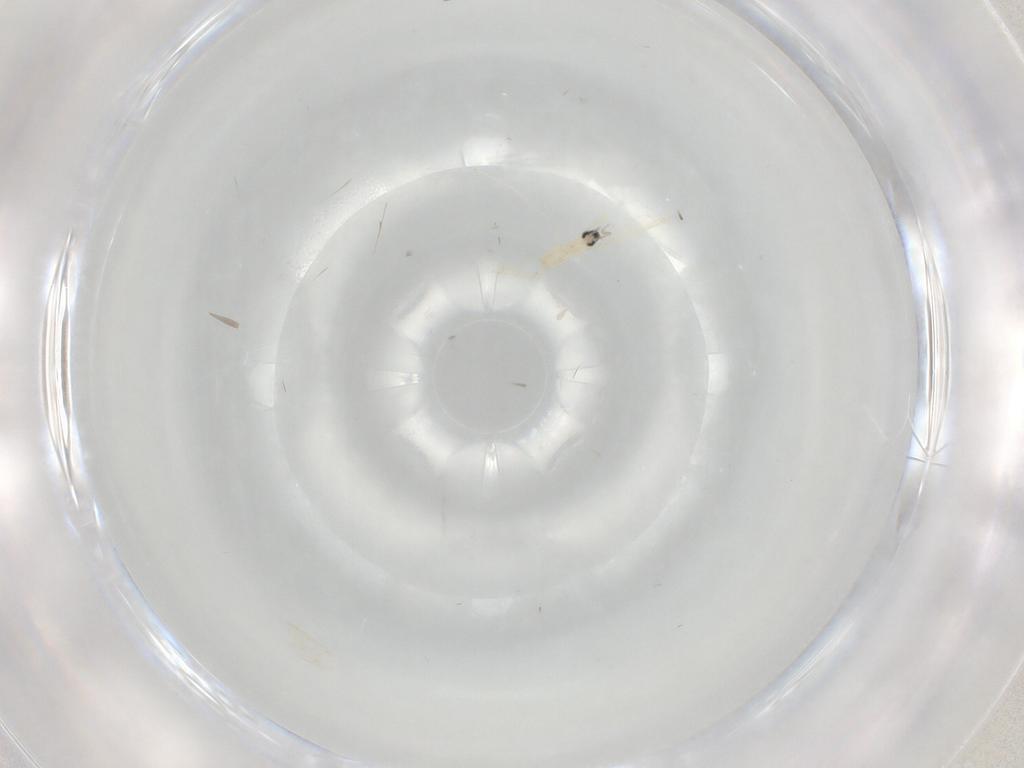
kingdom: Animalia
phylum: Arthropoda
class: Insecta
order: Diptera
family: Cecidomyiidae
